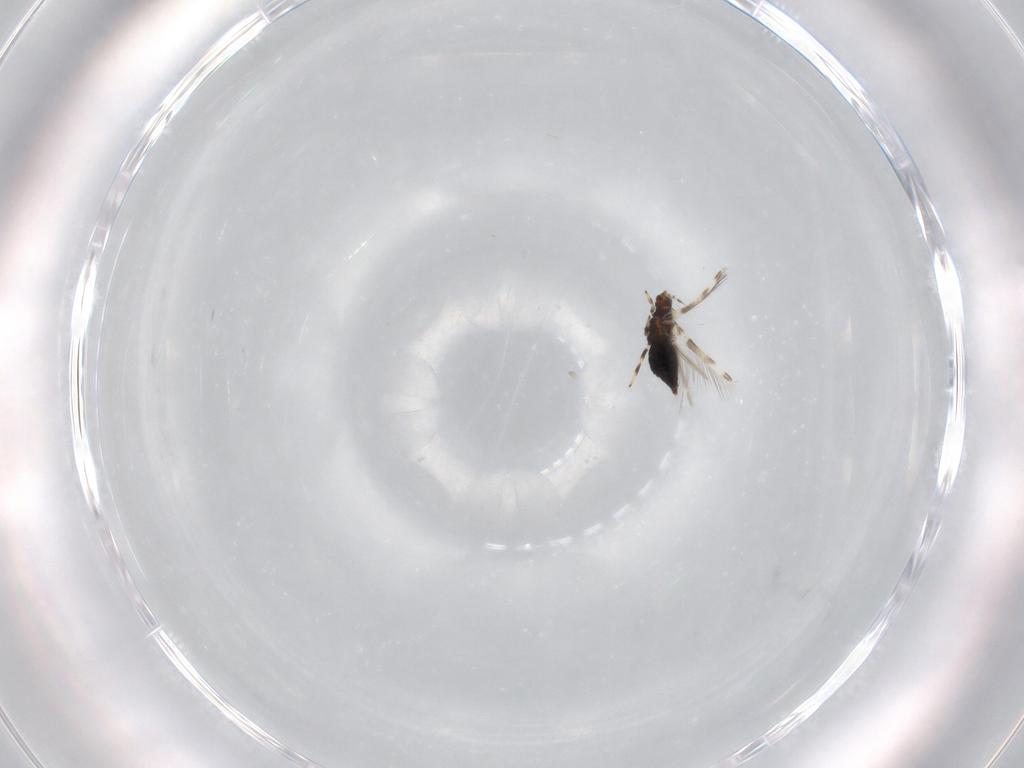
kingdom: Animalia
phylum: Arthropoda
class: Insecta
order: Thysanoptera
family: Thripidae
